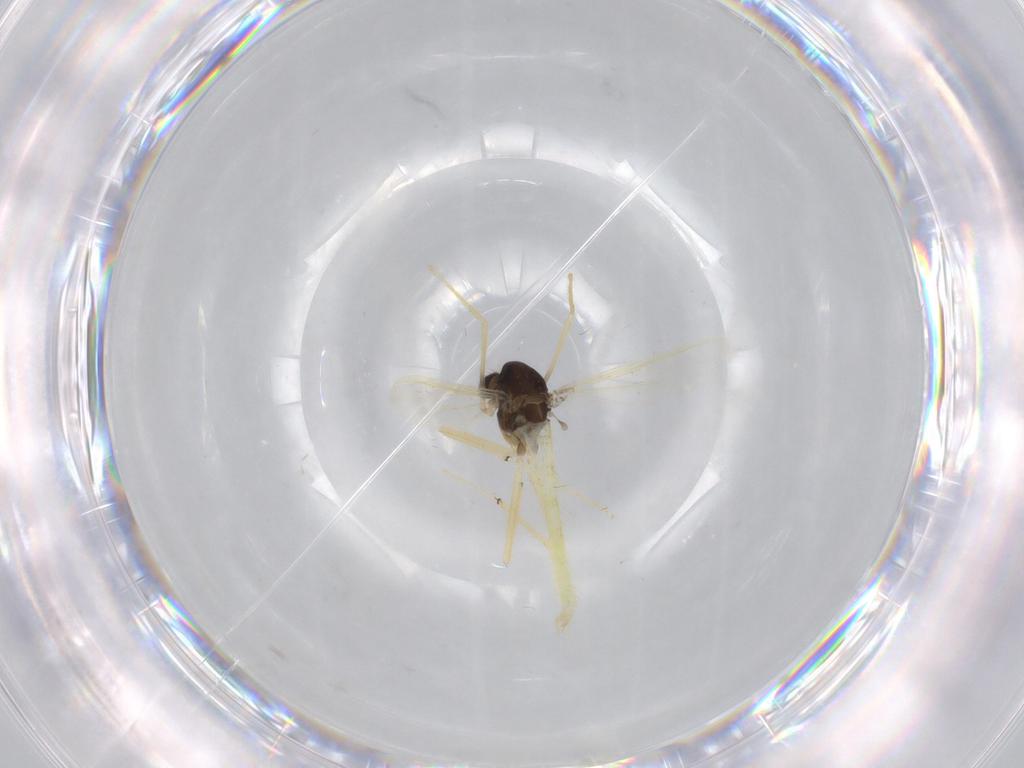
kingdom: Animalia
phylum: Arthropoda
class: Insecta
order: Diptera
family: Chironomidae
